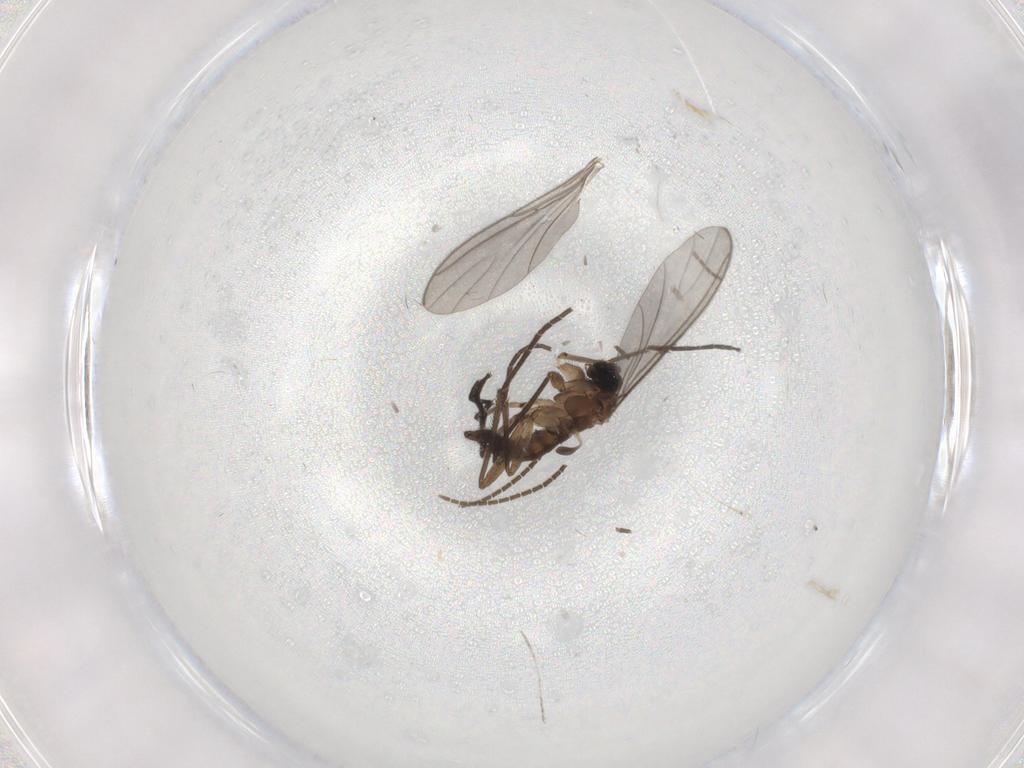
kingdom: Animalia
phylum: Arthropoda
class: Insecta
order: Diptera
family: Sciaridae
